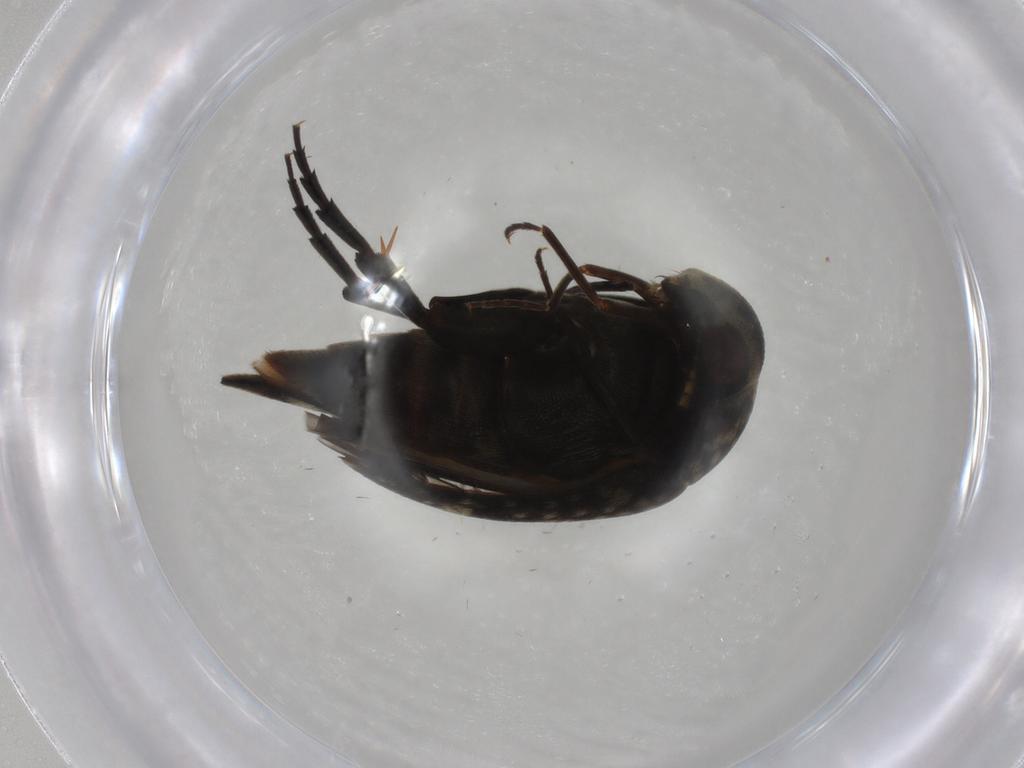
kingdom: Animalia
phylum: Arthropoda
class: Insecta
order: Coleoptera
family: Mordellidae
